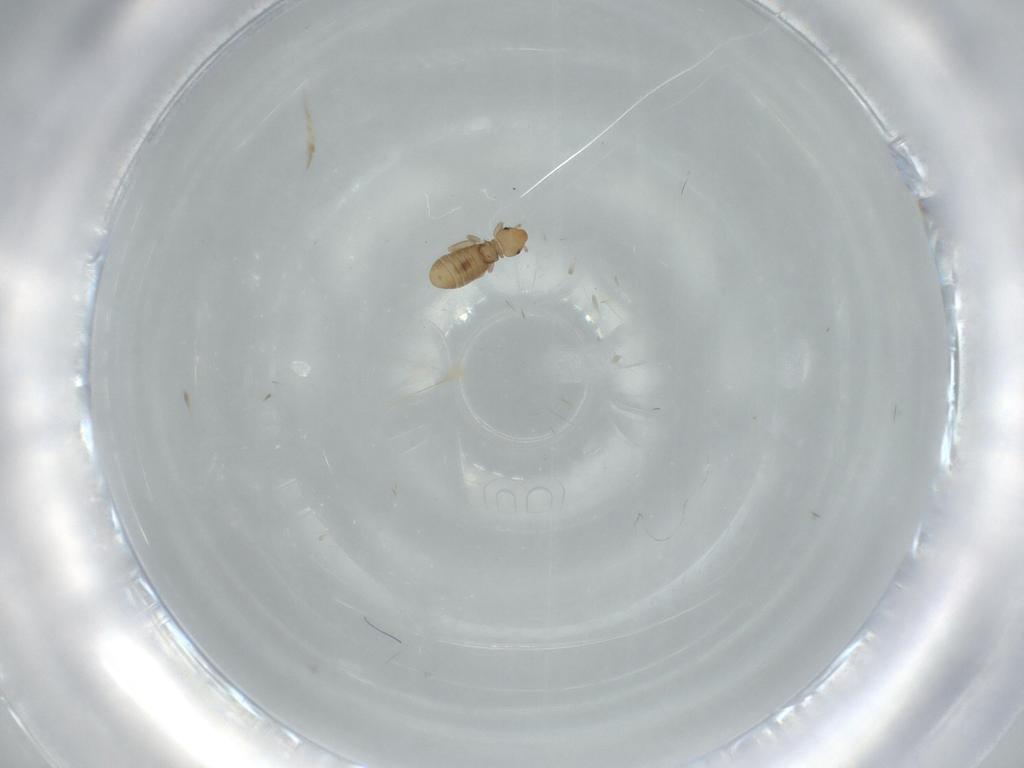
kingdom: Animalia
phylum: Arthropoda
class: Insecta
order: Psocodea
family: Liposcelididae
